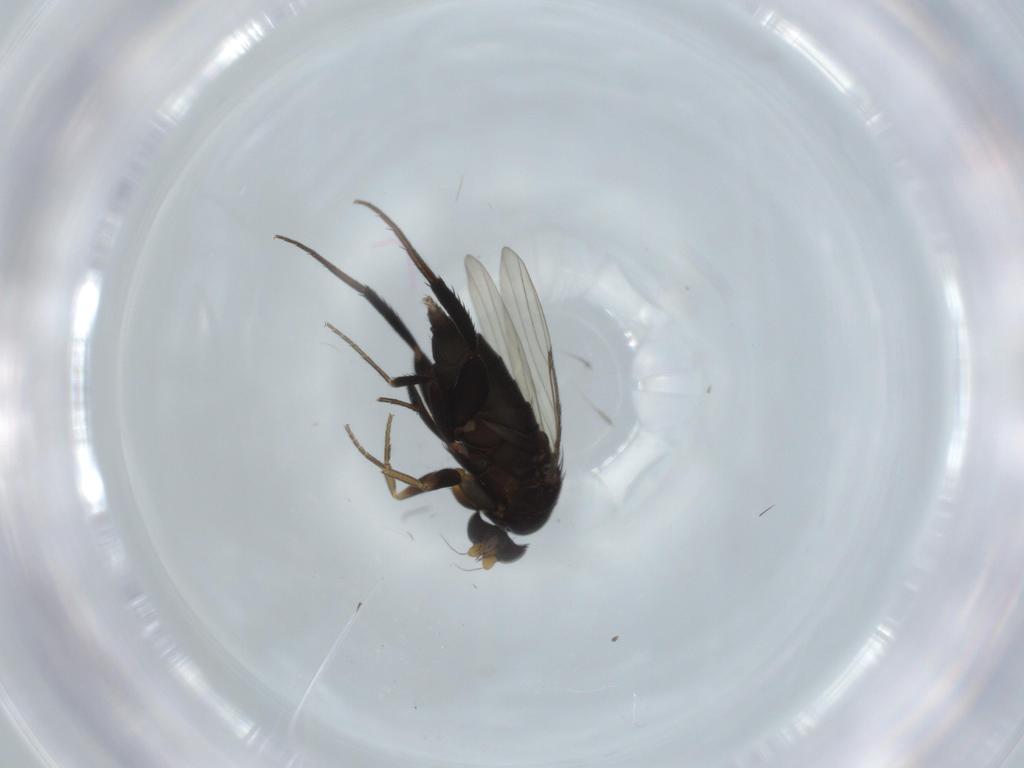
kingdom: Animalia
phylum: Arthropoda
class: Insecta
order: Diptera
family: Phoridae
